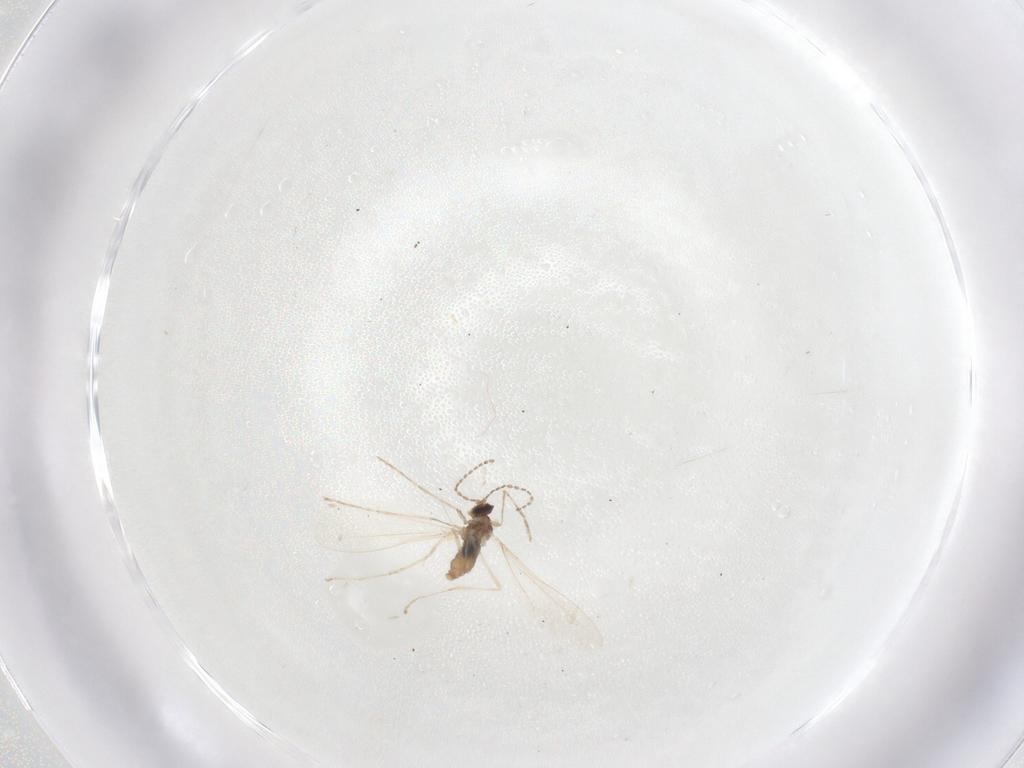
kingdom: Animalia
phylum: Arthropoda
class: Insecta
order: Diptera
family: Cecidomyiidae
